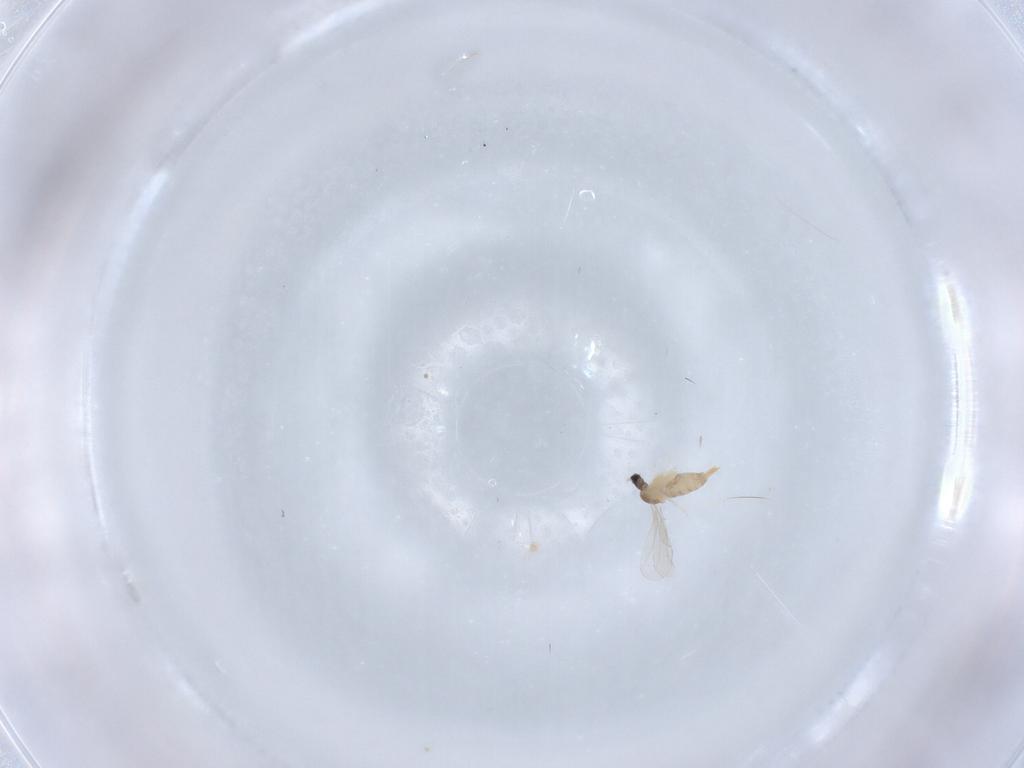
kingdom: Animalia
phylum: Arthropoda
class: Insecta
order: Diptera
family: Cecidomyiidae
